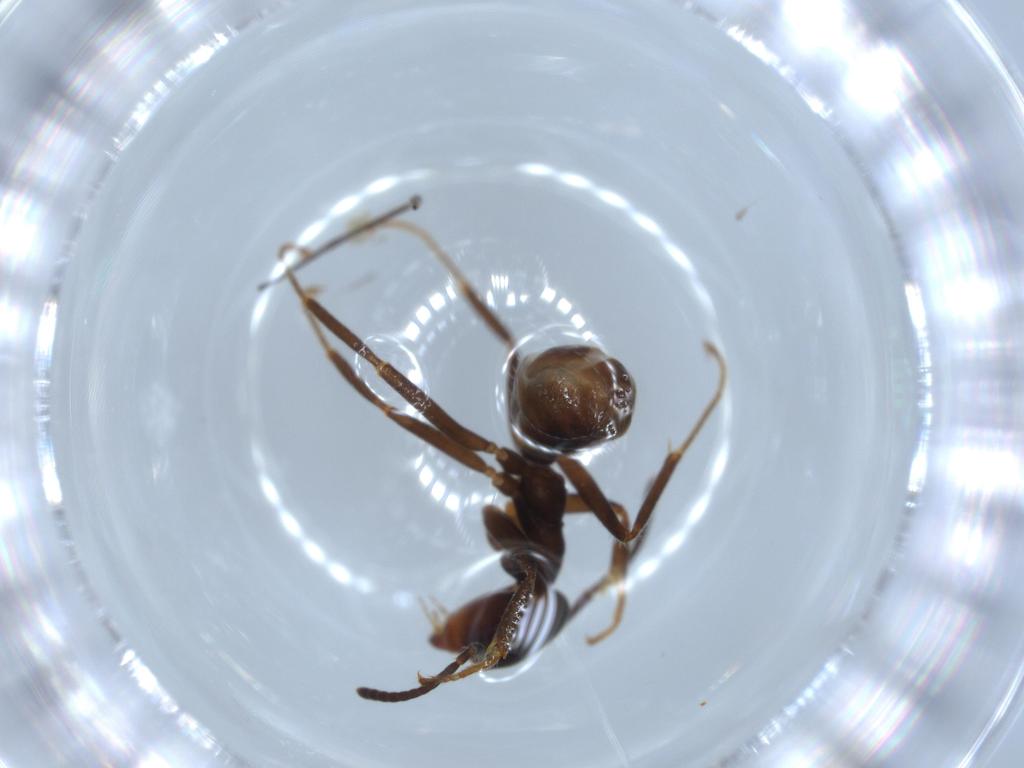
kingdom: Animalia
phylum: Arthropoda
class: Insecta
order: Hymenoptera
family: Formicidae
